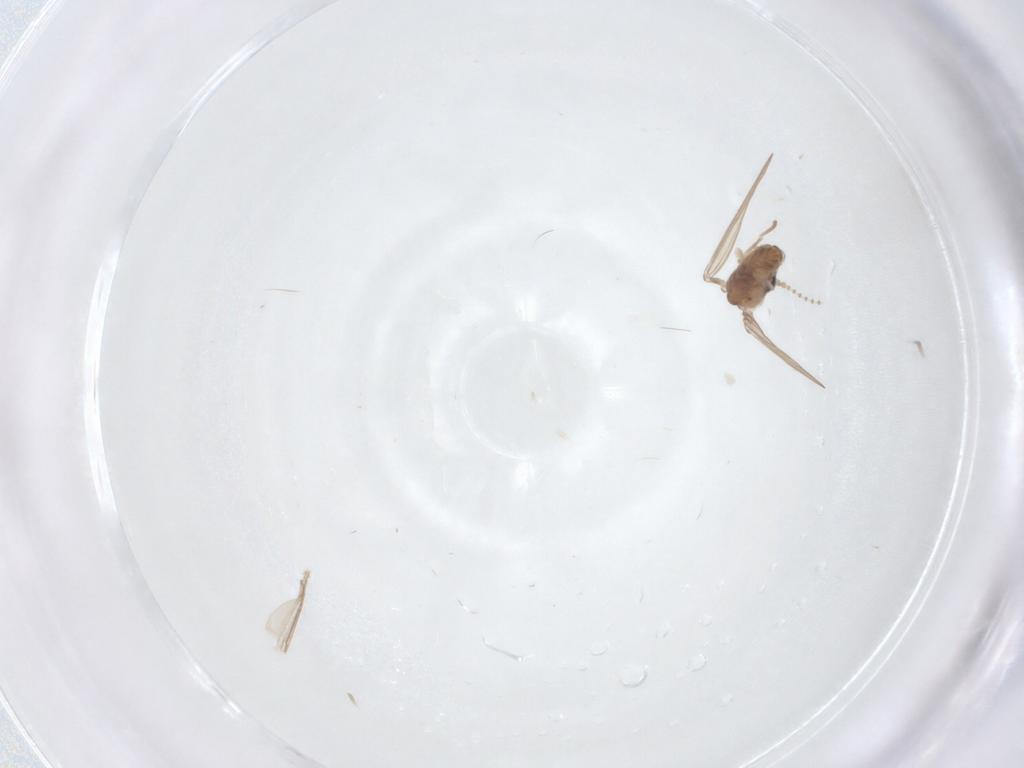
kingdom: Animalia
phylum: Arthropoda
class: Insecta
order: Diptera
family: Psychodidae
